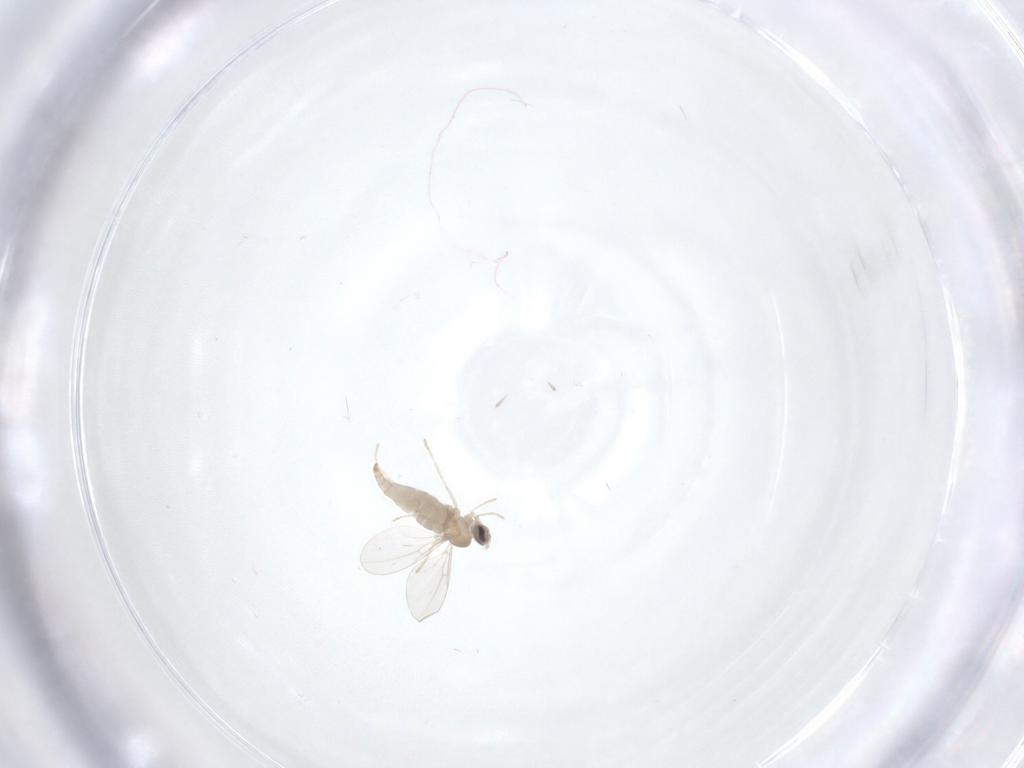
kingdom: Animalia
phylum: Arthropoda
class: Insecta
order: Diptera
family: Cecidomyiidae
